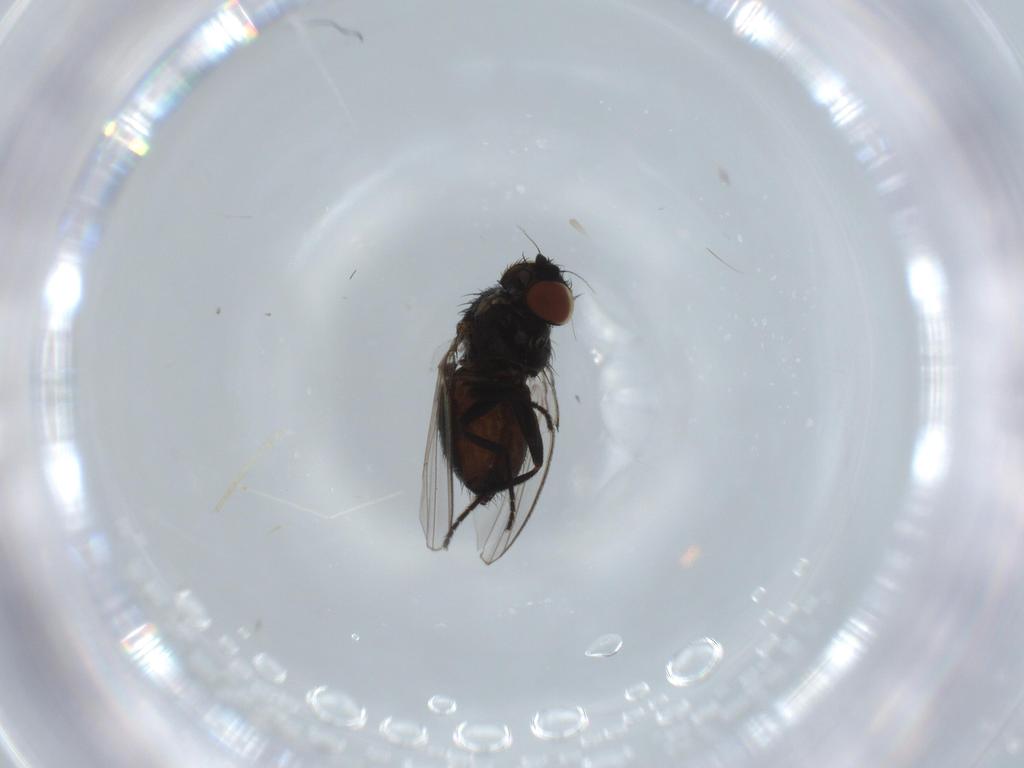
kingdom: Animalia
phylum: Arthropoda
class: Insecta
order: Diptera
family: Milichiidae
